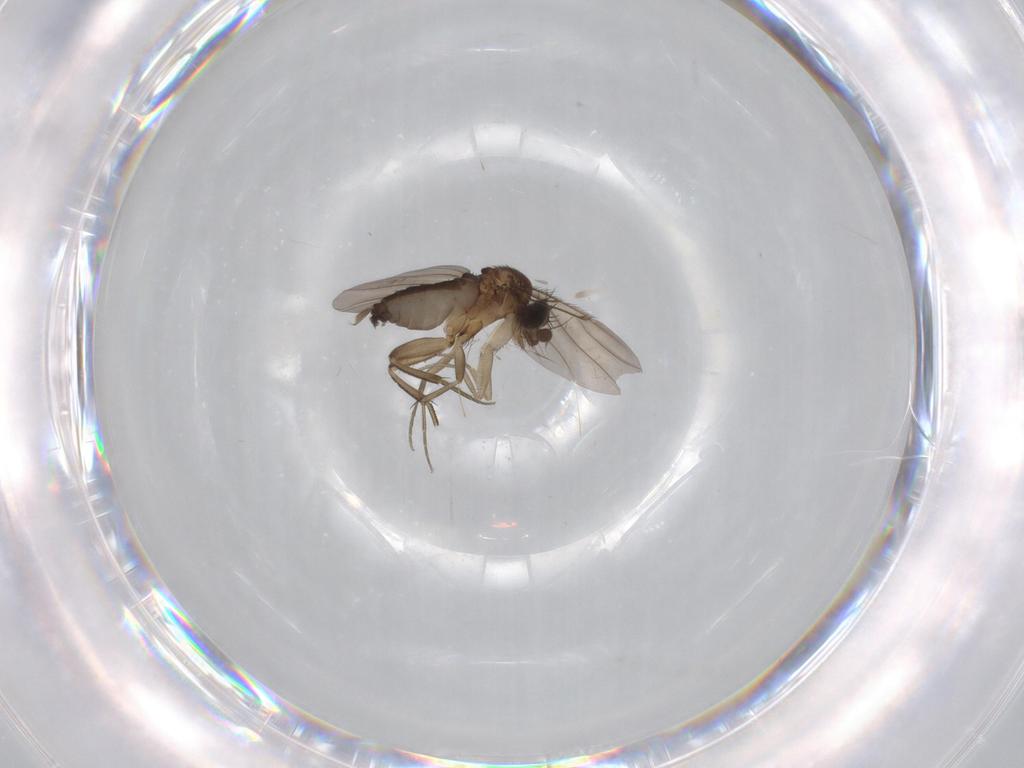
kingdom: Animalia
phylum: Arthropoda
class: Insecta
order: Diptera
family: Phoridae
